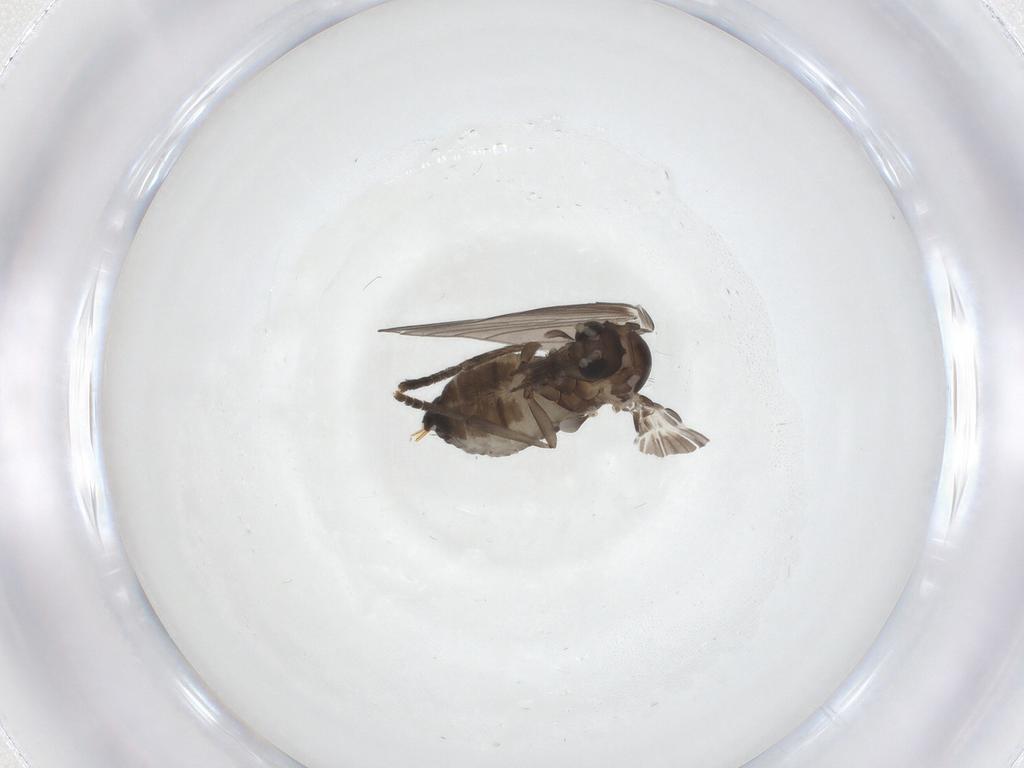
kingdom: Animalia
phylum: Arthropoda
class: Insecta
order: Diptera
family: Psychodidae
